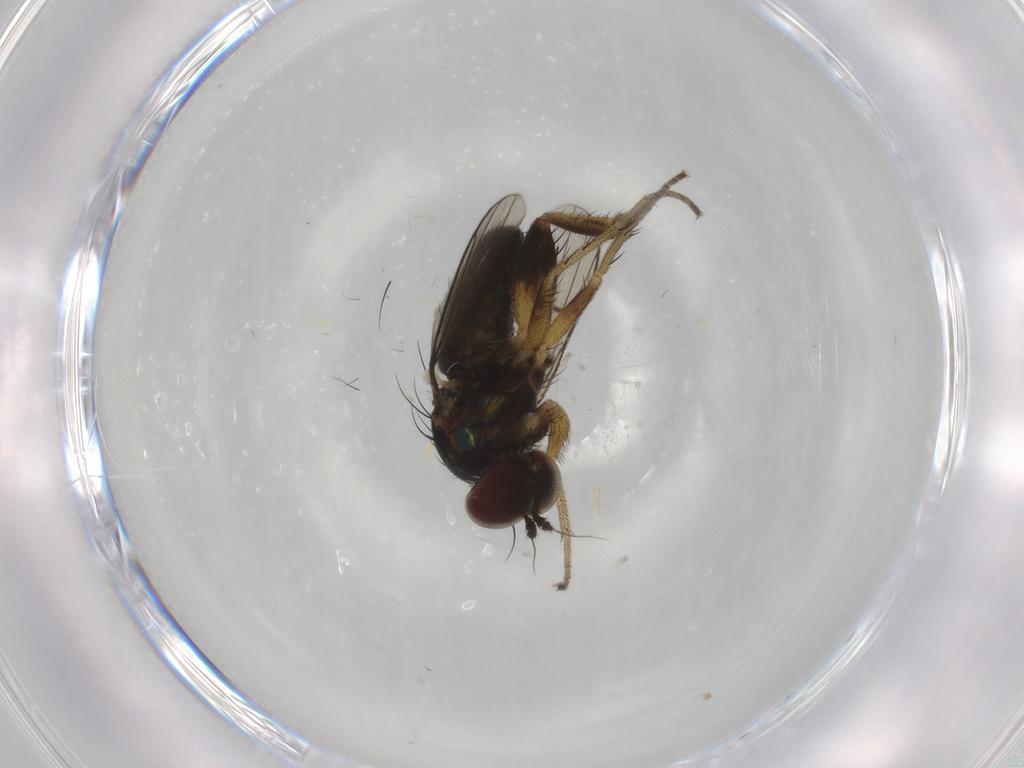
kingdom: Animalia
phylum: Arthropoda
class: Insecta
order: Diptera
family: Dolichopodidae
